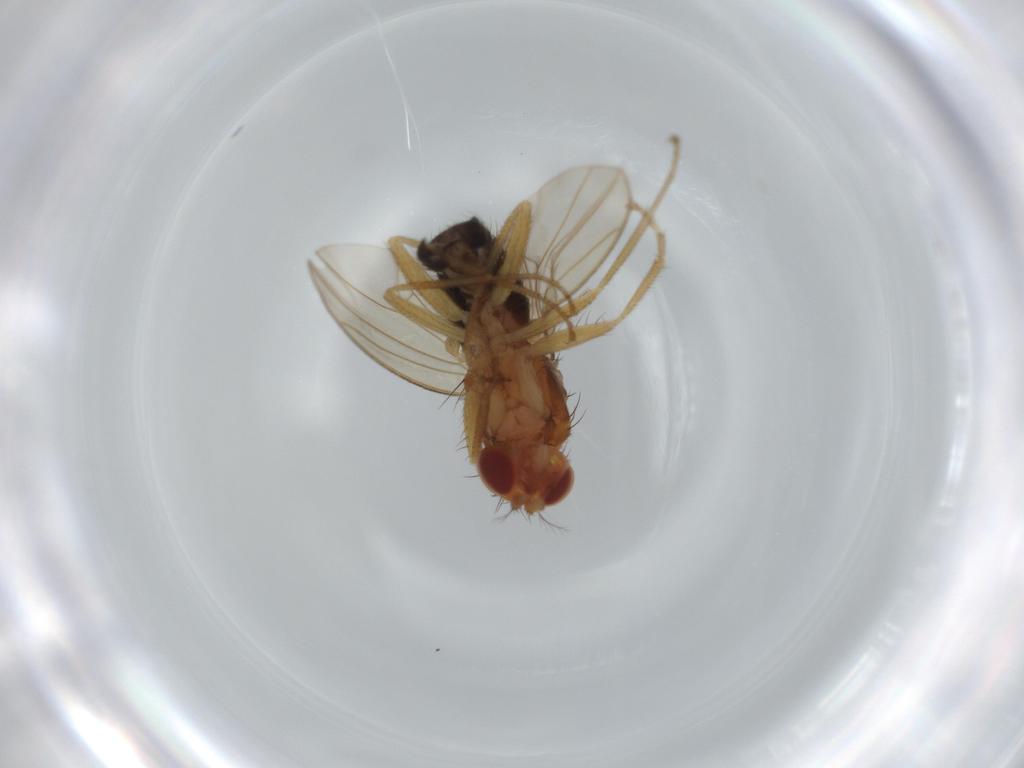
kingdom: Animalia
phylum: Arthropoda
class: Insecta
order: Diptera
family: Drosophilidae
